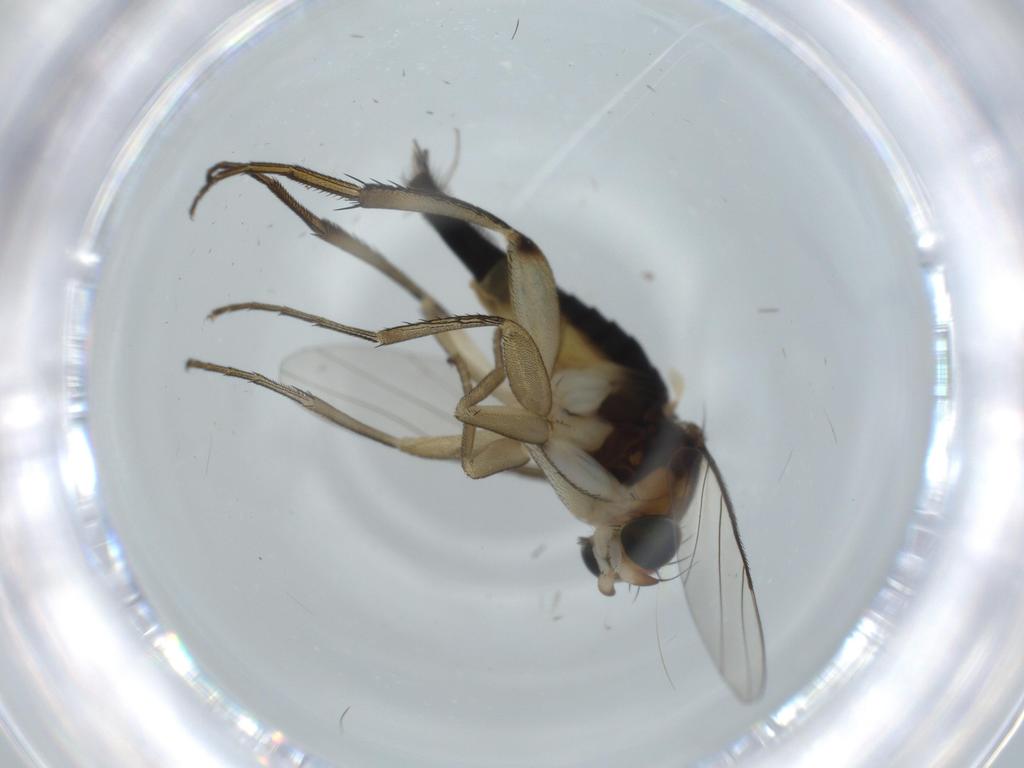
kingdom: Animalia
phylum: Arthropoda
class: Insecta
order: Diptera
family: Phoridae
